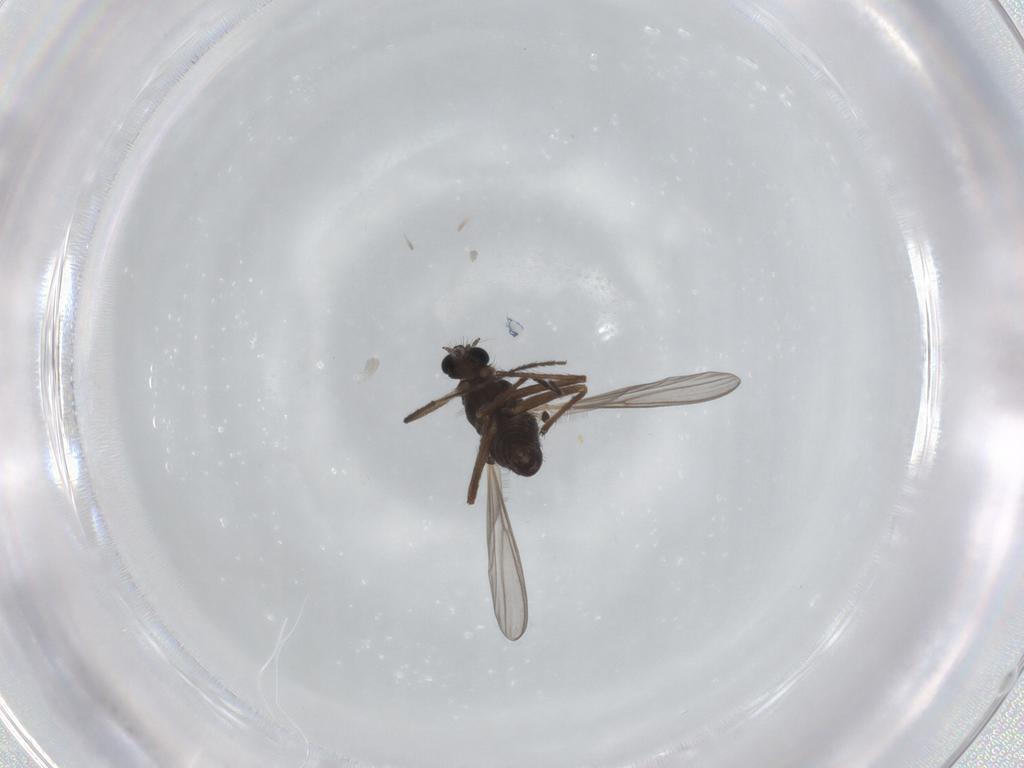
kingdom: Animalia
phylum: Arthropoda
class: Insecta
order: Diptera
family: Chironomidae
